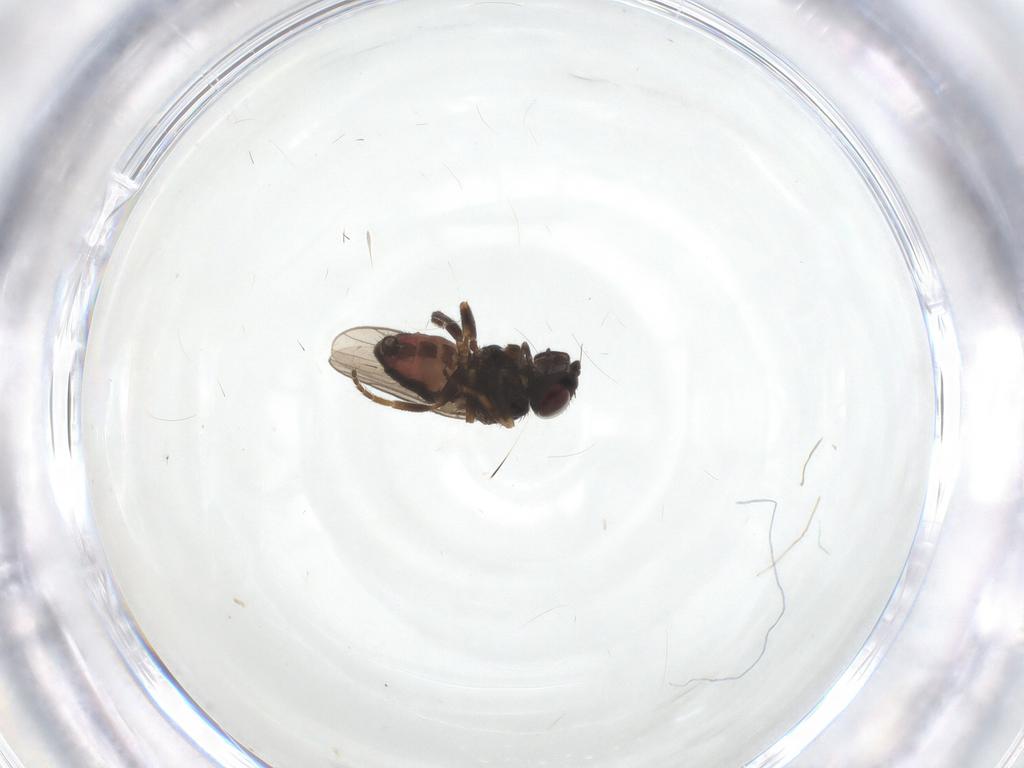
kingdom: Animalia
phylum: Arthropoda
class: Insecta
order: Diptera
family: Chloropidae
